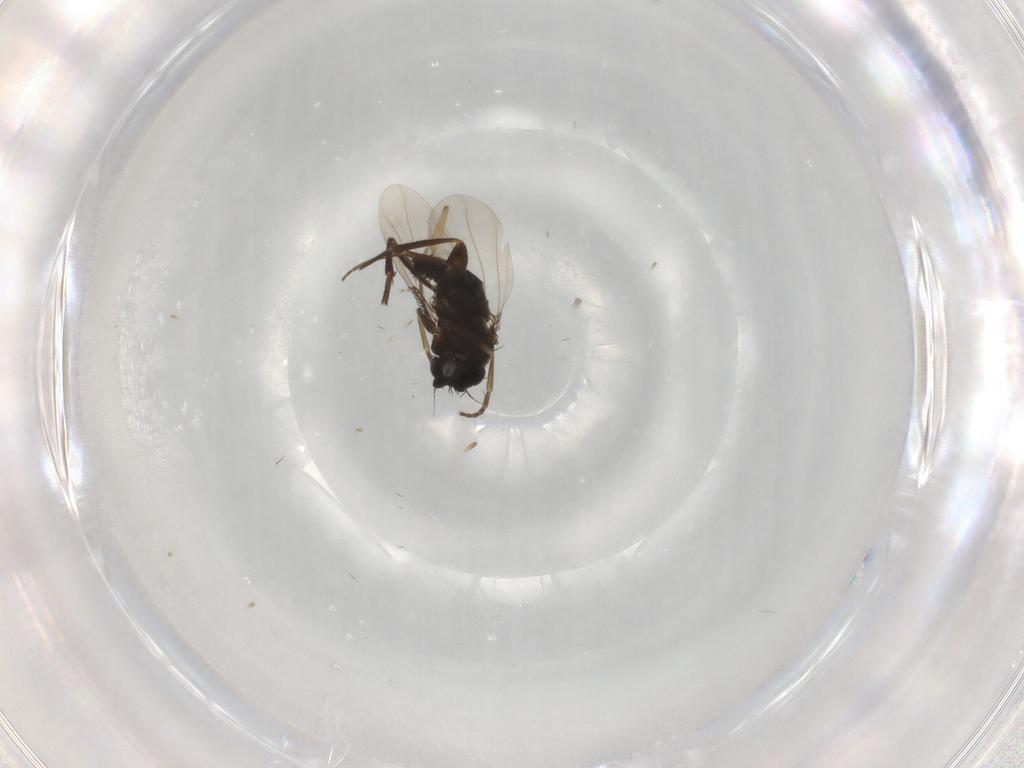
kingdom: Animalia
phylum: Arthropoda
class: Insecta
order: Diptera
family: Phoridae
